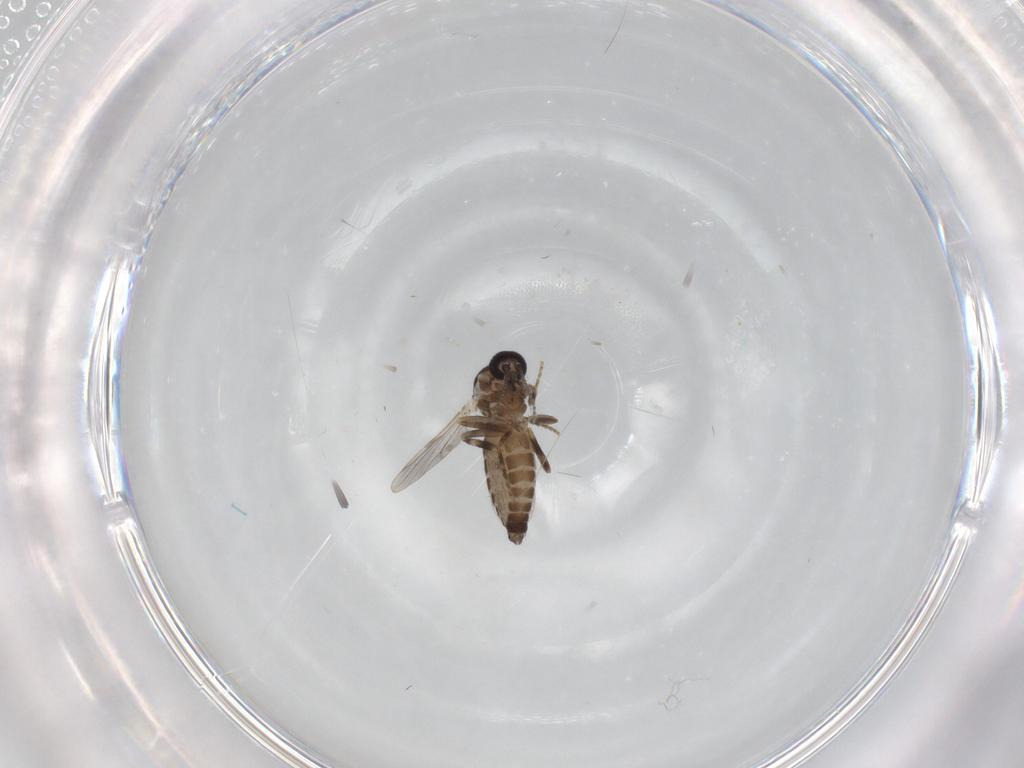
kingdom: Animalia
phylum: Arthropoda
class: Insecta
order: Diptera
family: Ceratopogonidae
